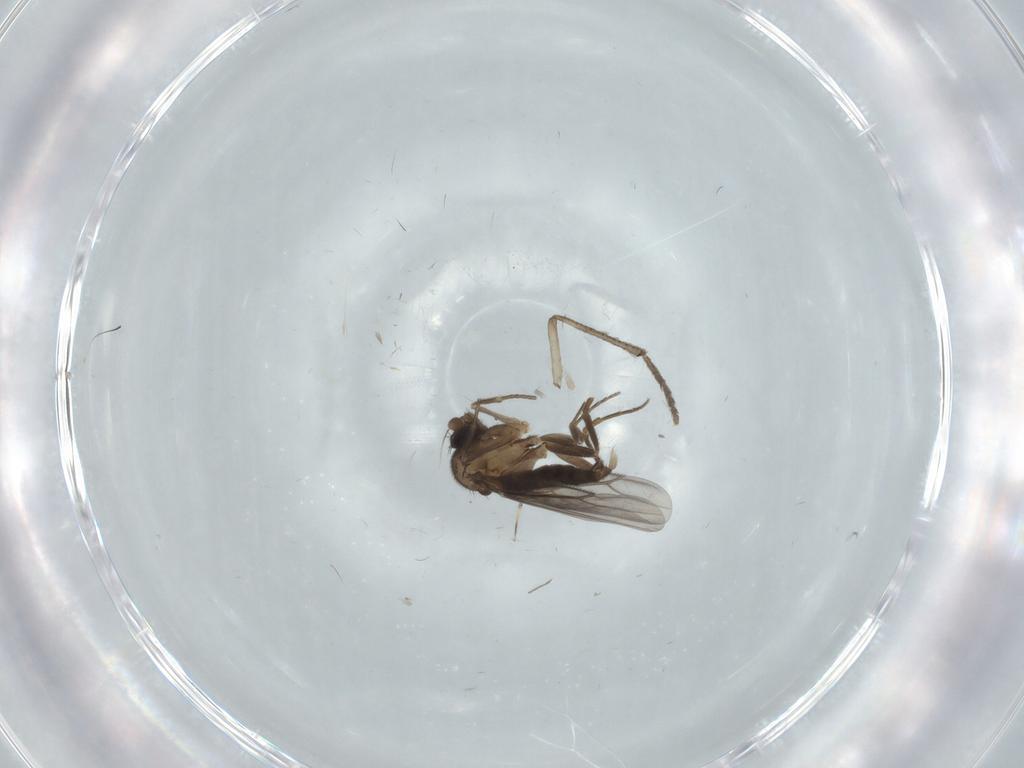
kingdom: Animalia
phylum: Arthropoda
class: Insecta
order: Diptera
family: Psychodidae
